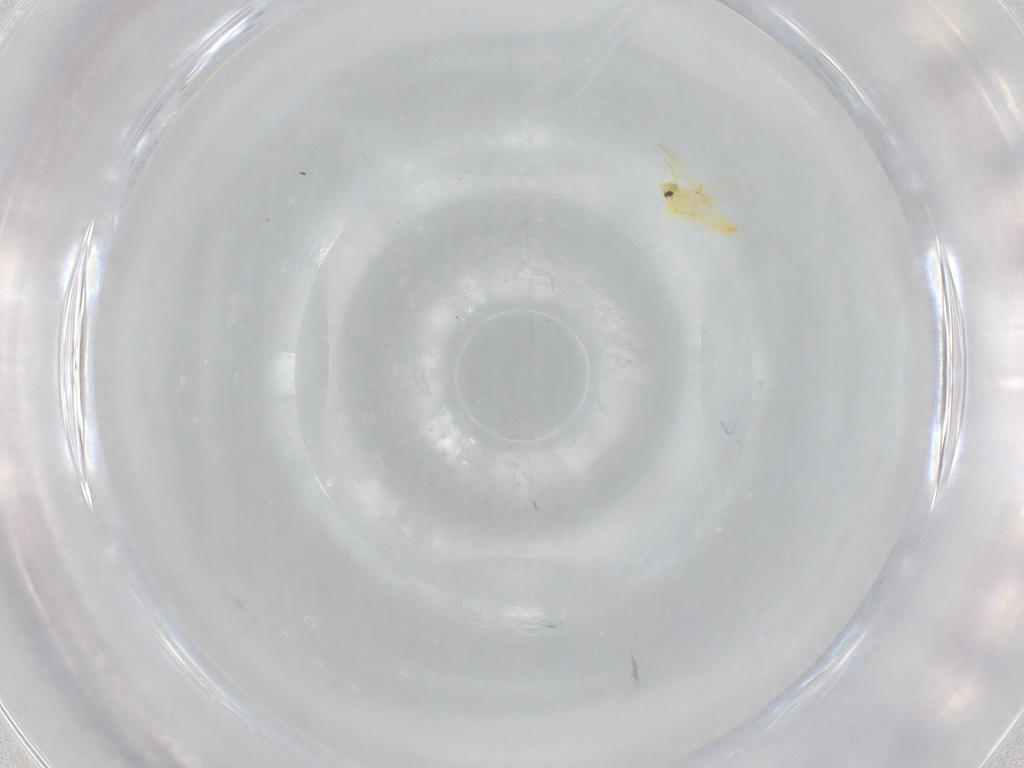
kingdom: Animalia
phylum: Arthropoda
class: Insecta
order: Hemiptera
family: Aleyrodidae
